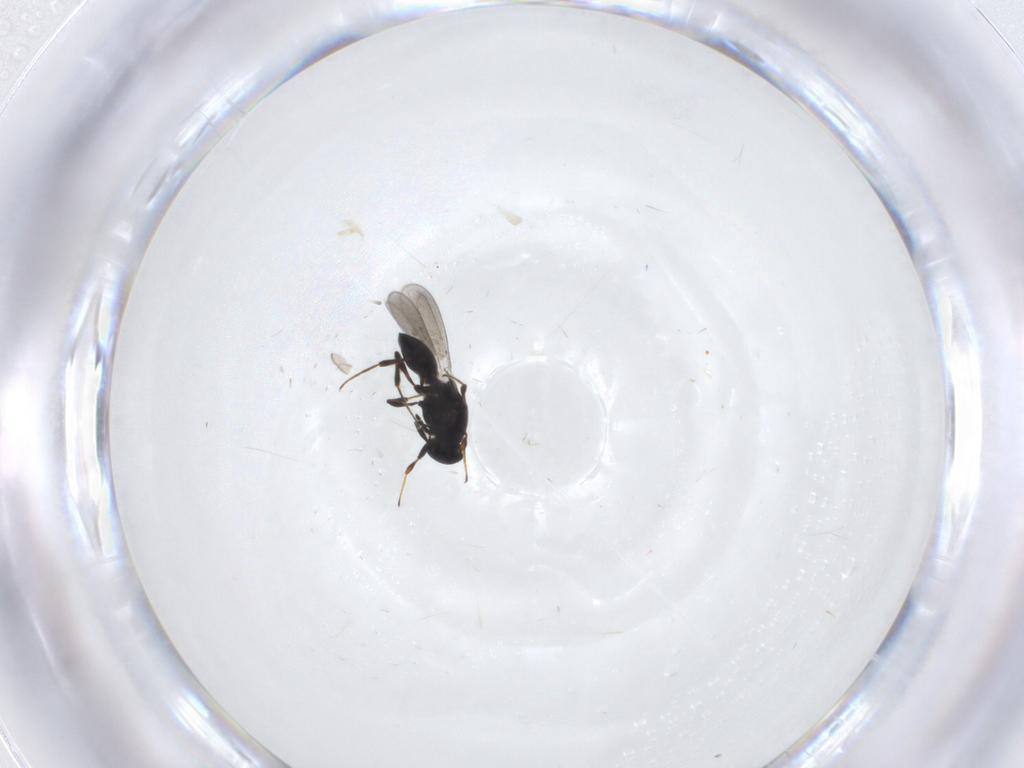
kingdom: Animalia
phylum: Arthropoda
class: Insecta
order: Hymenoptera
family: Platygastridae
